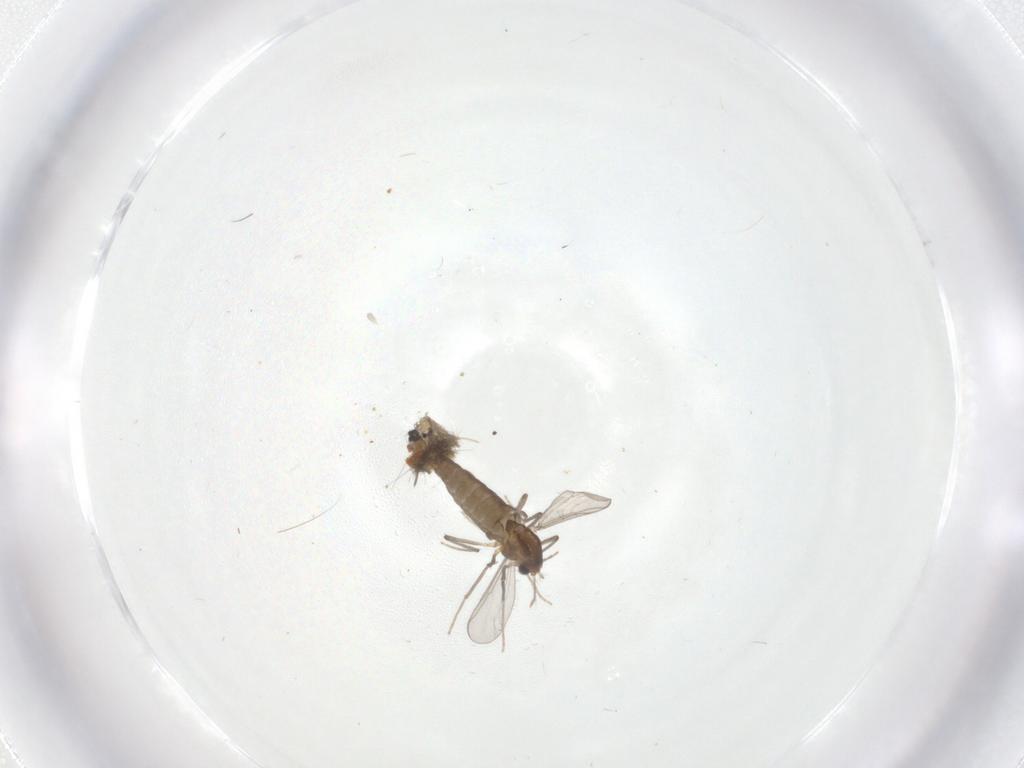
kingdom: Animalia
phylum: Arthropoda
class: Insecta
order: Diptera
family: Chironomidae
